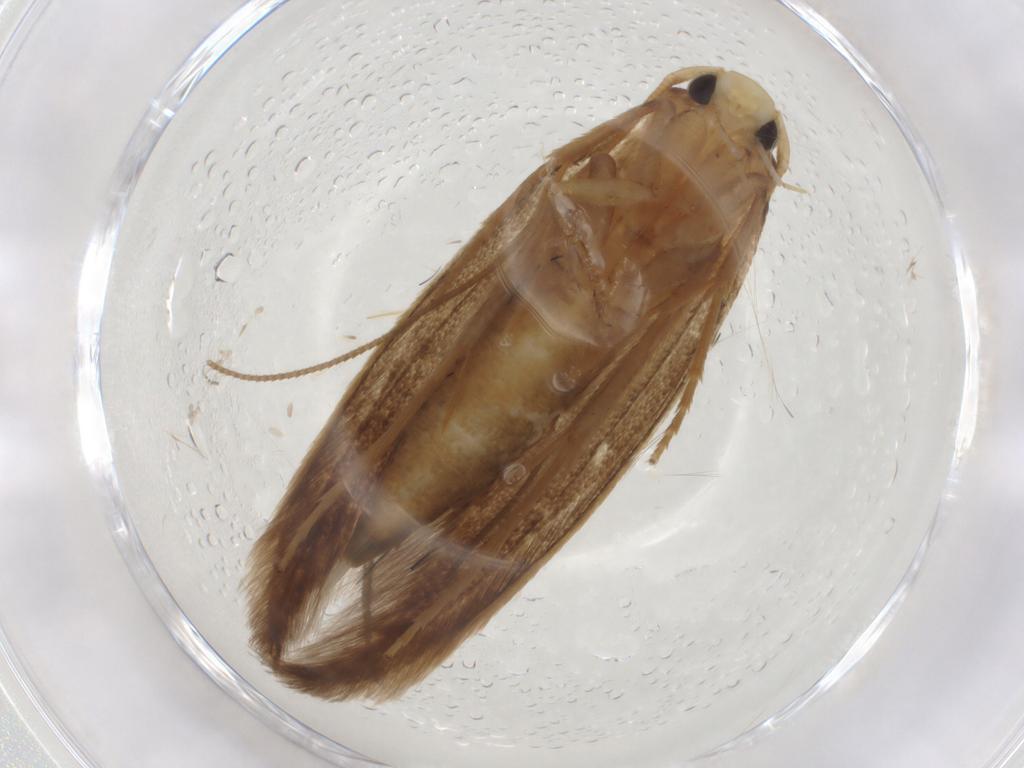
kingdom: Animalia
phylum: Arthropoda
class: Insecta
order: Lepidoptera
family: Tineidae
